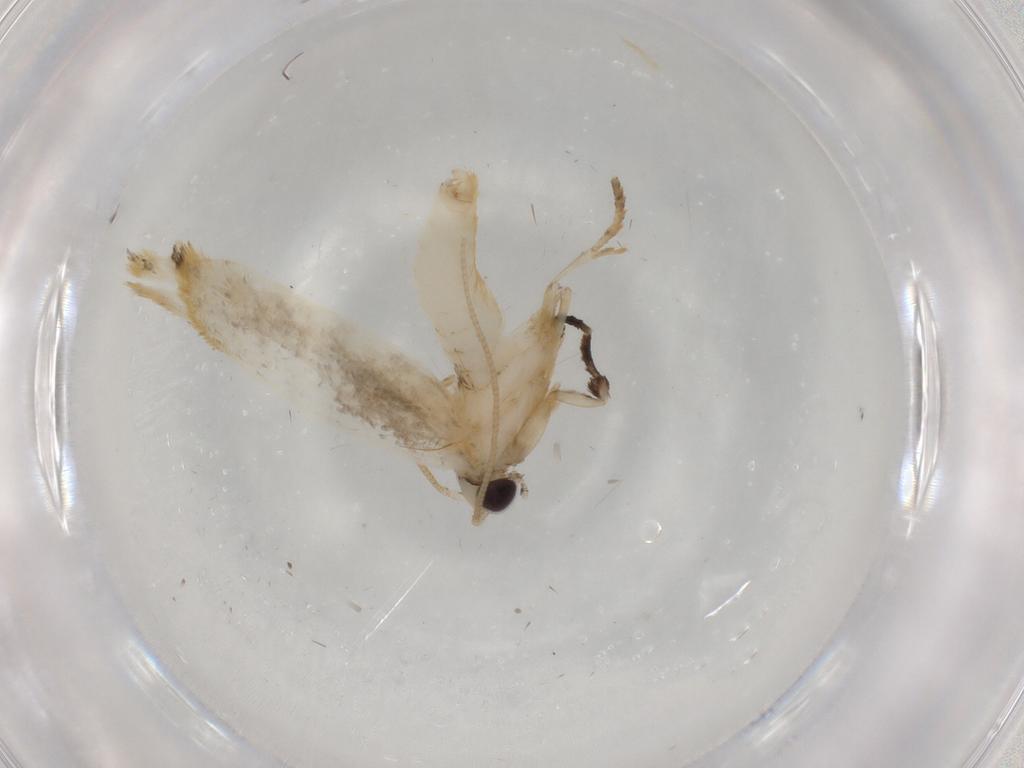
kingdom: Animalia
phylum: Arthropoda
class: Insecta
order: Lepidoptera
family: Tineidae
